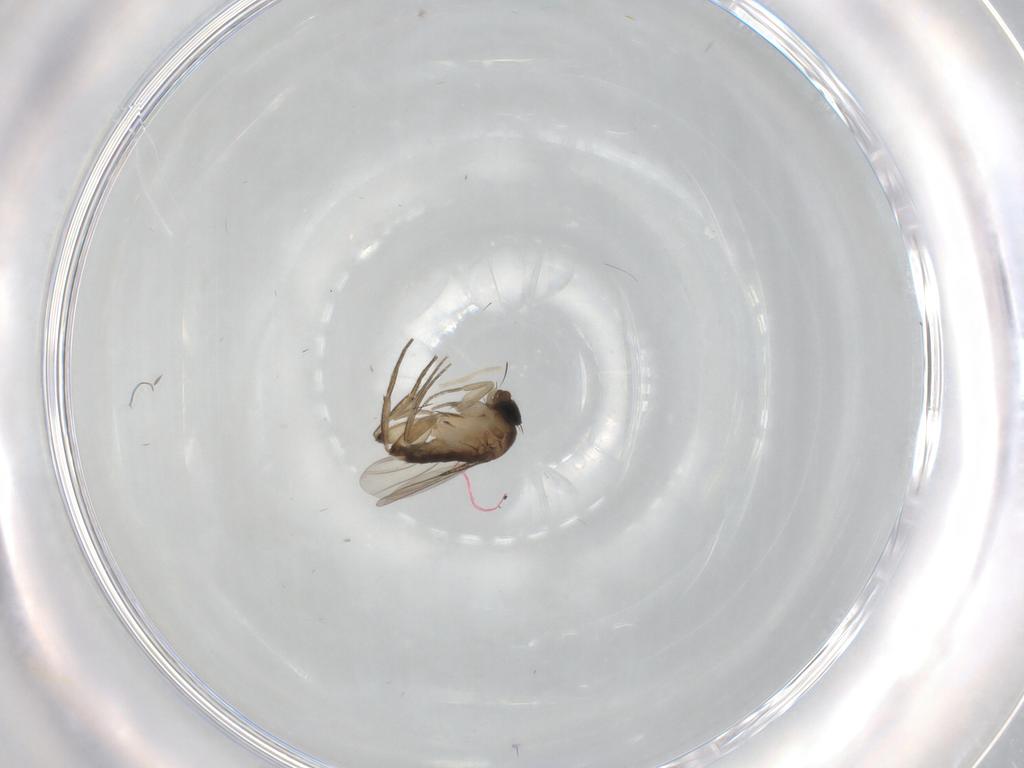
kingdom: Animalia
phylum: Arthropoda
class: Insecta
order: Diptera
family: Phoridae
